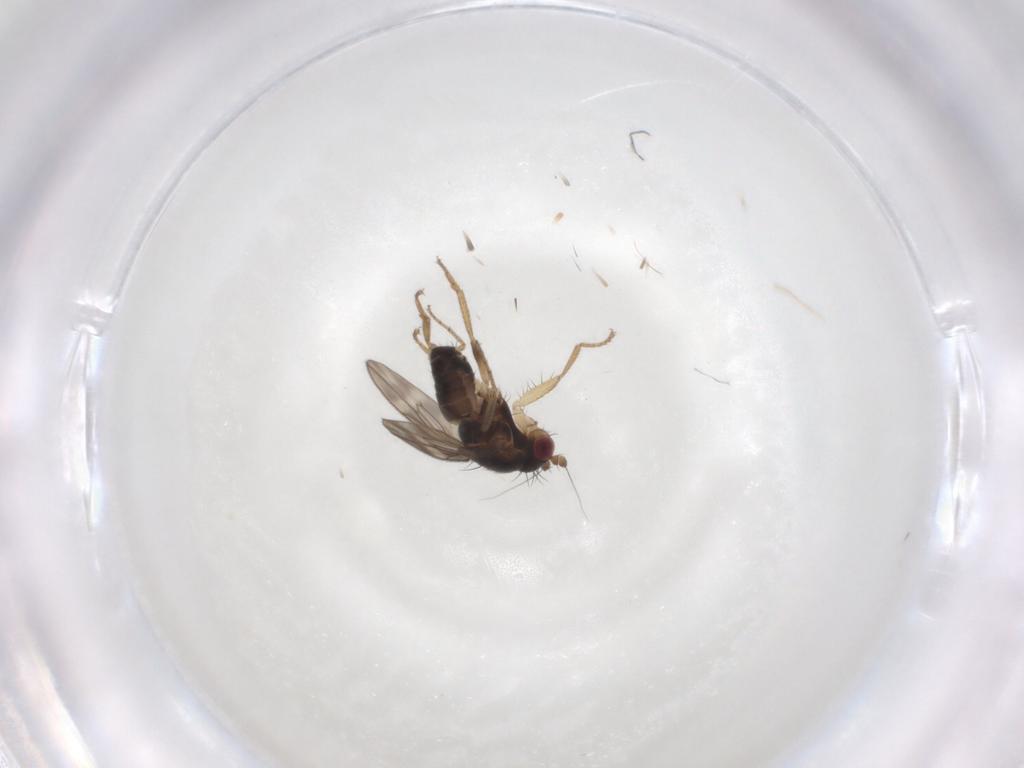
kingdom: Animalia
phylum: Arthropoda
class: Insecta
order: Diptera
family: Sphaeroceridae
